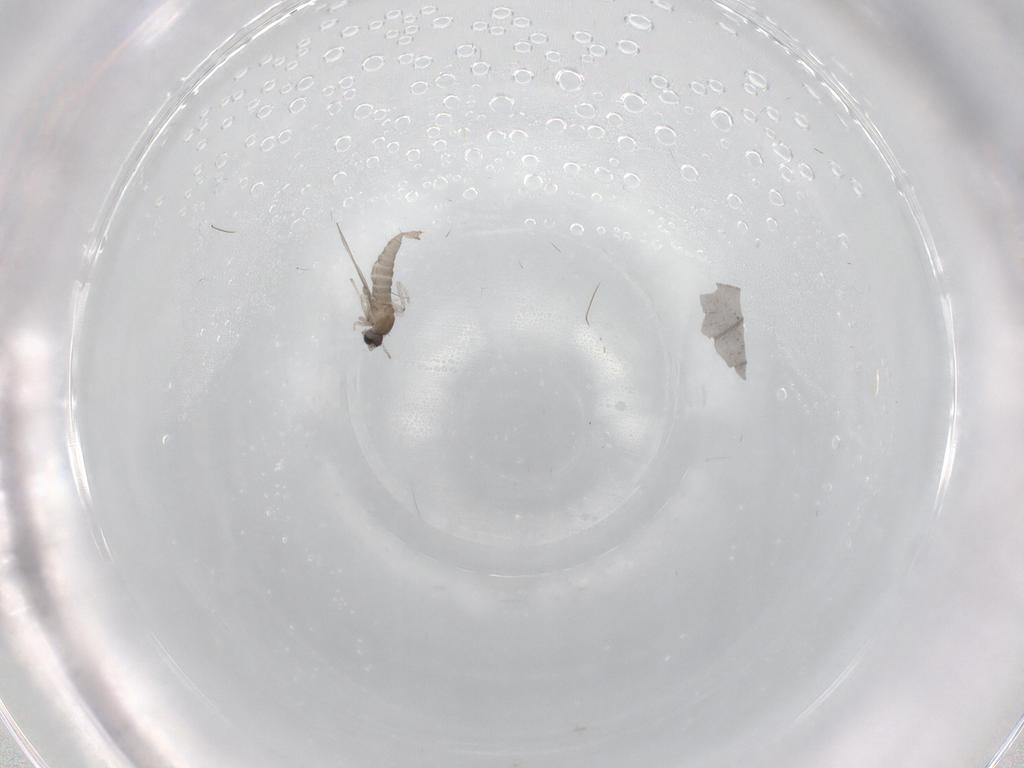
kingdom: Animalia
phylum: Arthropoda
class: Insecta
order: Diptera
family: Cecidomyiidae
